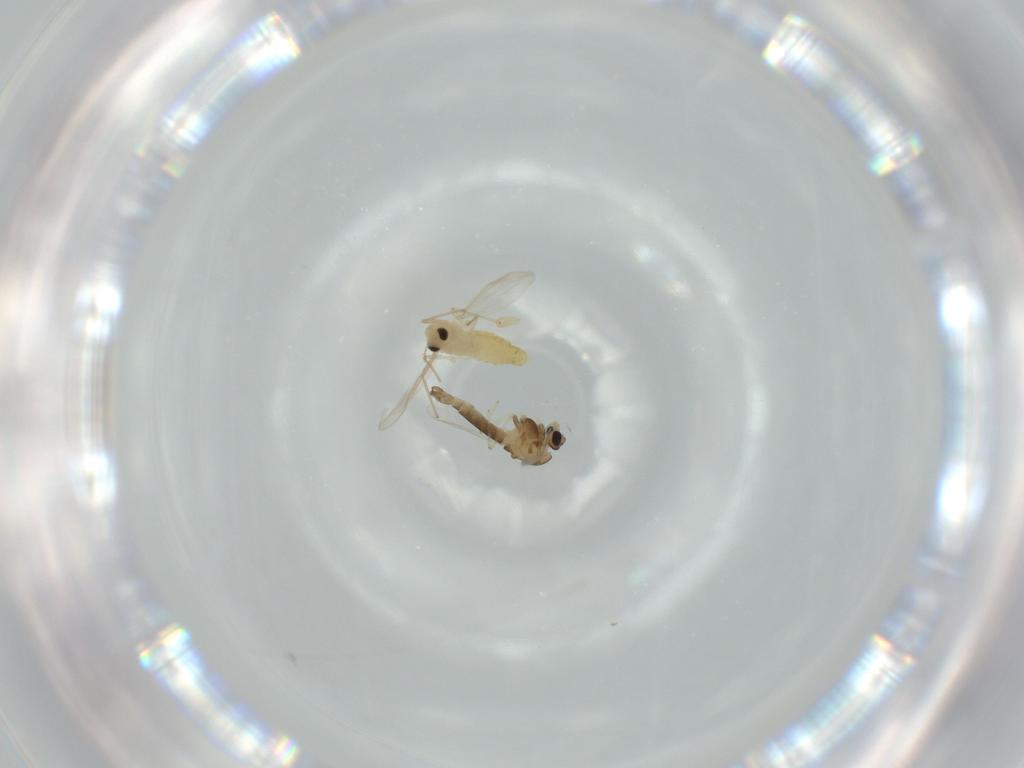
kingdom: Animalia
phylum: Arthropoda
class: Insecta
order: Diptera
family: Chironomidae
